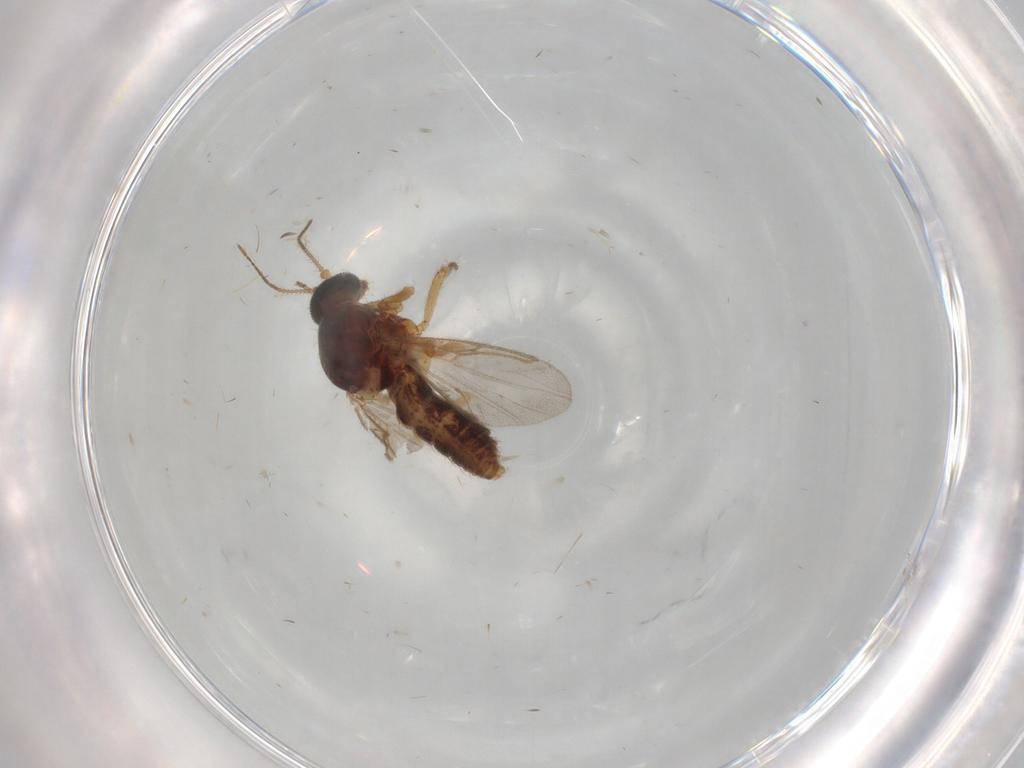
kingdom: Animalia
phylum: Arthropoda
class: Insecta
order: Diptera
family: Ceratopogonidae
